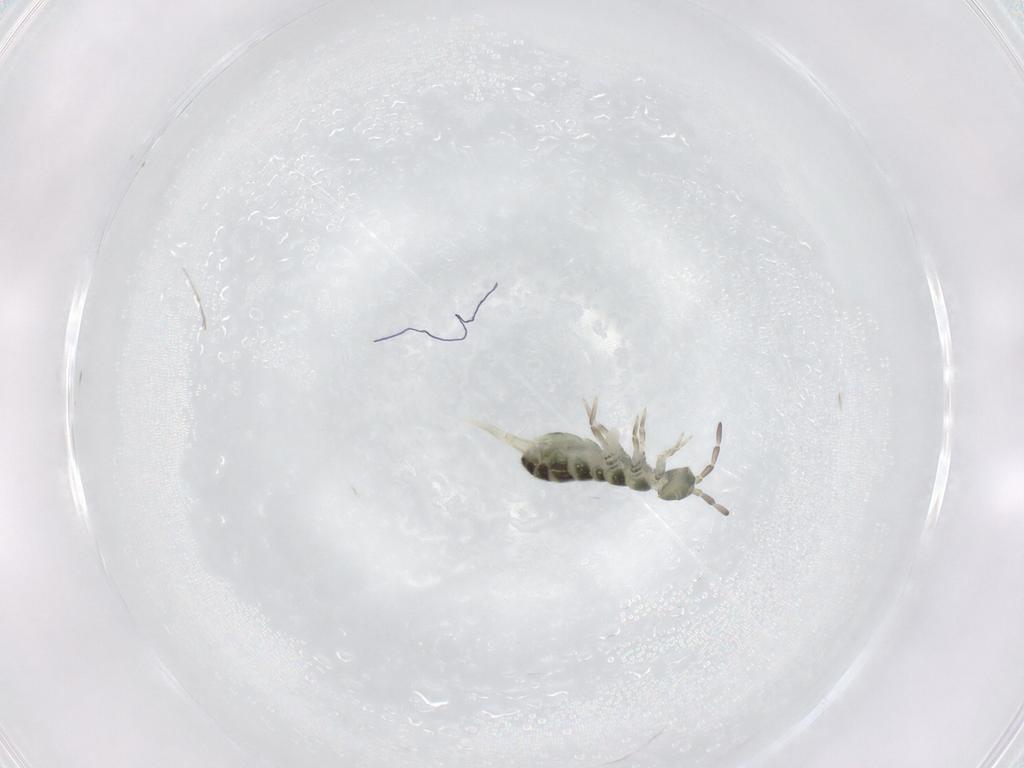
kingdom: Animalia
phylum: Arthropoda
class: Collembola
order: Entomobryomorpha
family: Isotomidae
